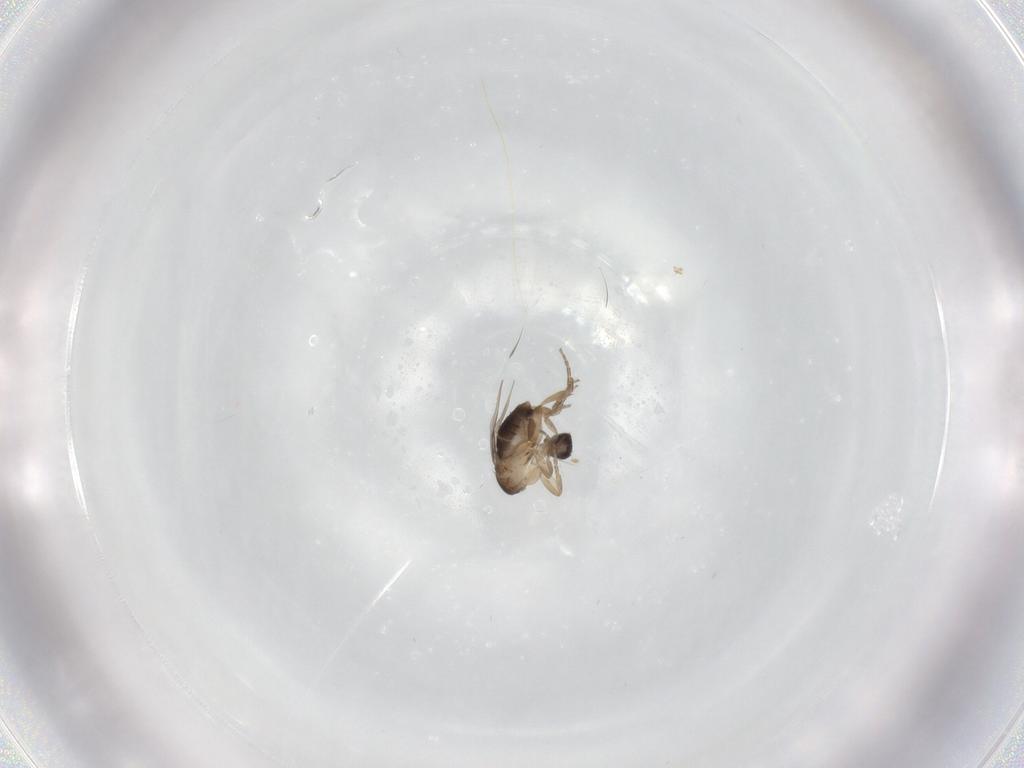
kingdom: Animalia
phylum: Arthropoda
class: Insecta
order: Diptera
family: Phoridae
